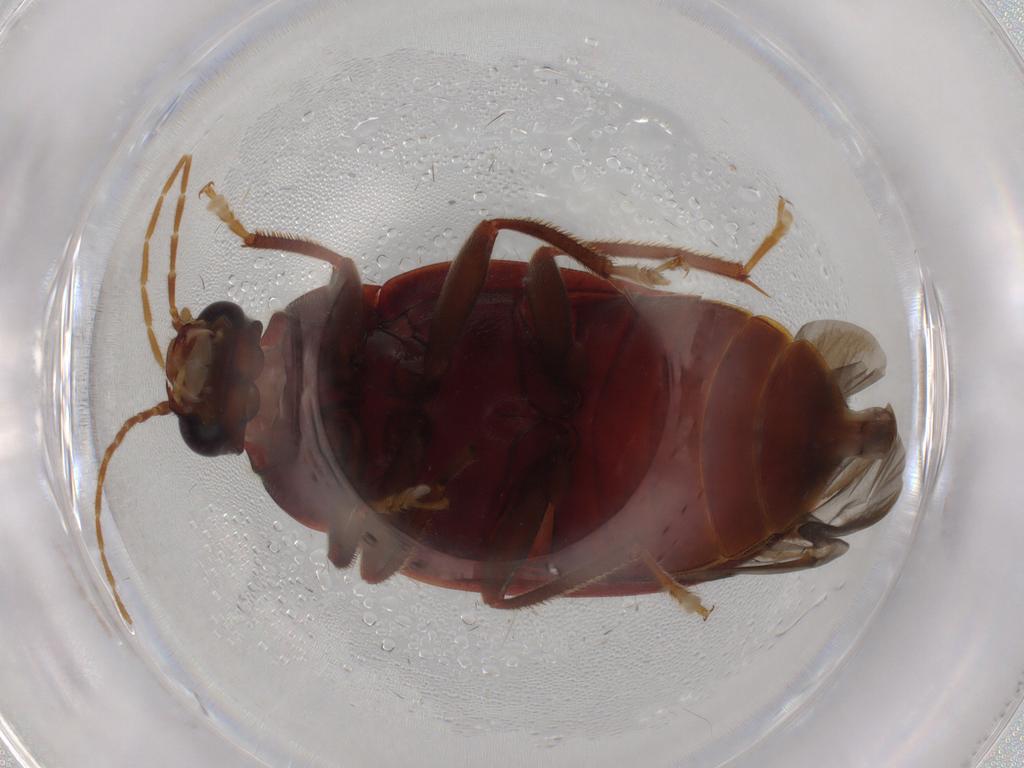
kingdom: Animalia
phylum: Arthropoda
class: Insecta
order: Coleoptera
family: Ptilodactylidae
